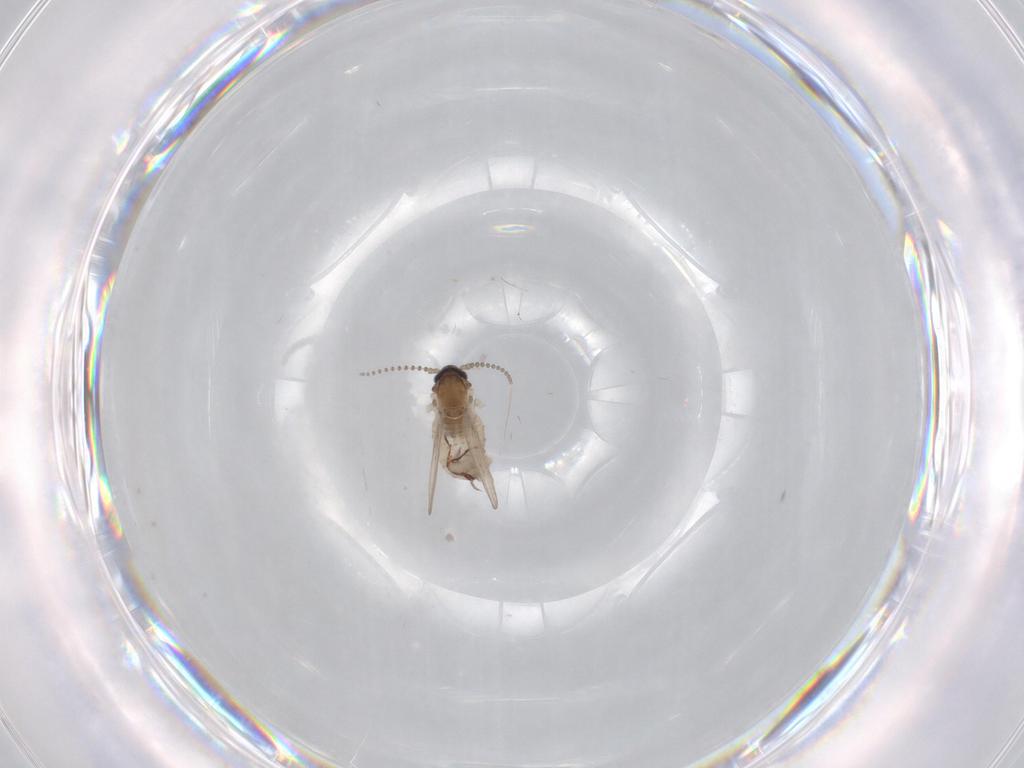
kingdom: Animalia
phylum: Arthropoda
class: Insecta
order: Diptera
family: Psychodidae
